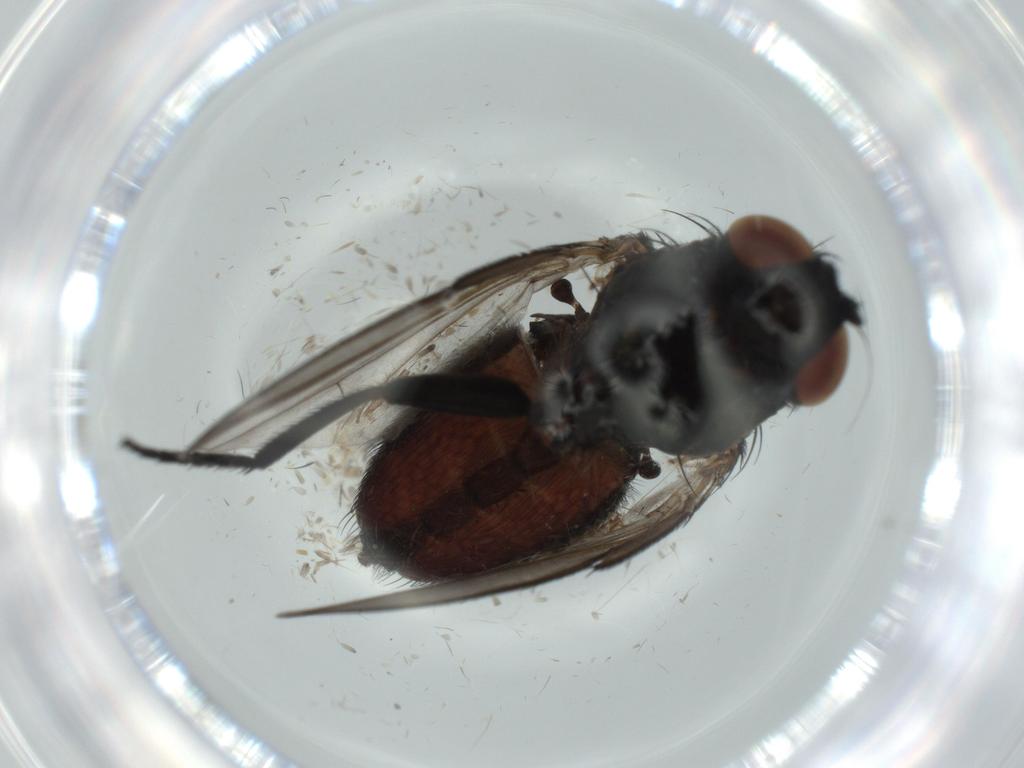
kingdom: Animalia
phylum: Arthropoda
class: Insecta
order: Diptera
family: Milichiidae
